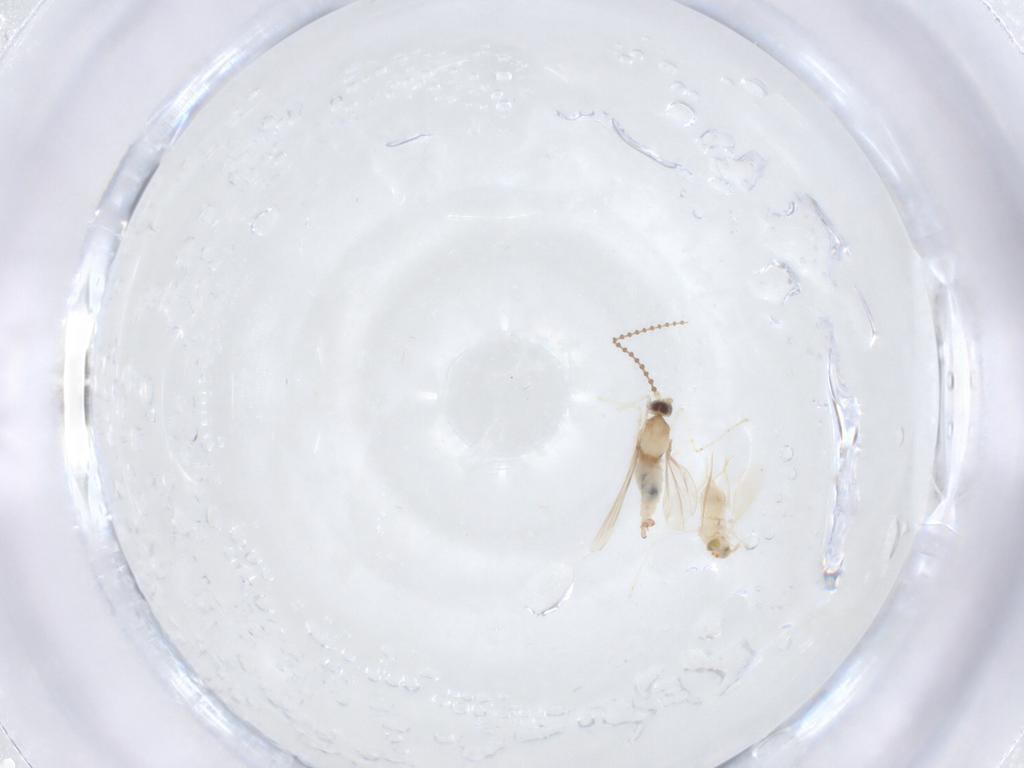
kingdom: Animalia
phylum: Arthropoda
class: Insecta
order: Diptera
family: Cecidomyiidae
